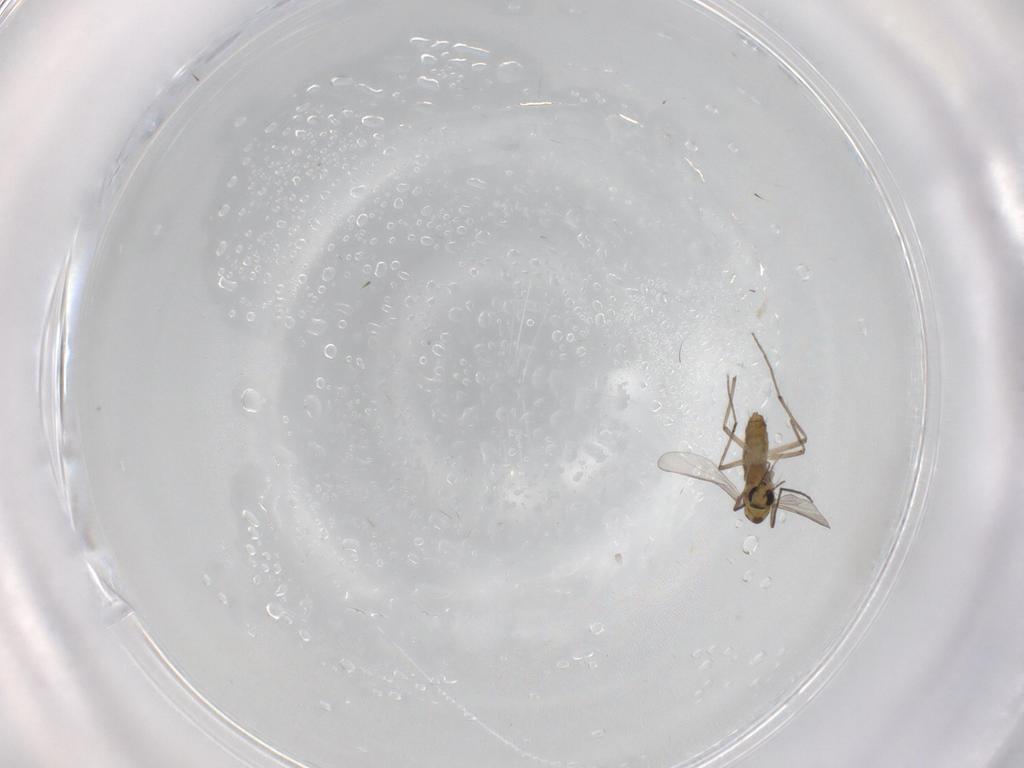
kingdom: Animalia
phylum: Arthropoda
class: Insecta
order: Diptera
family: Chironomidae
